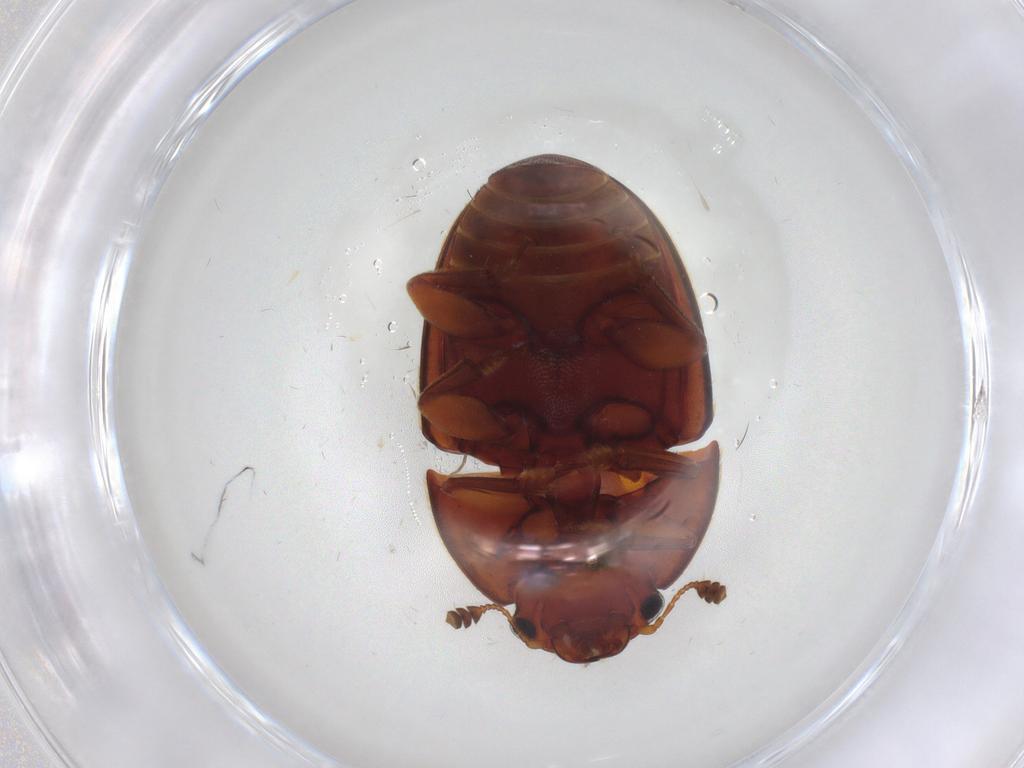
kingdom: Animalia
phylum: Arthropoda
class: Insecta
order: Coleoptera
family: Nitidulidae
